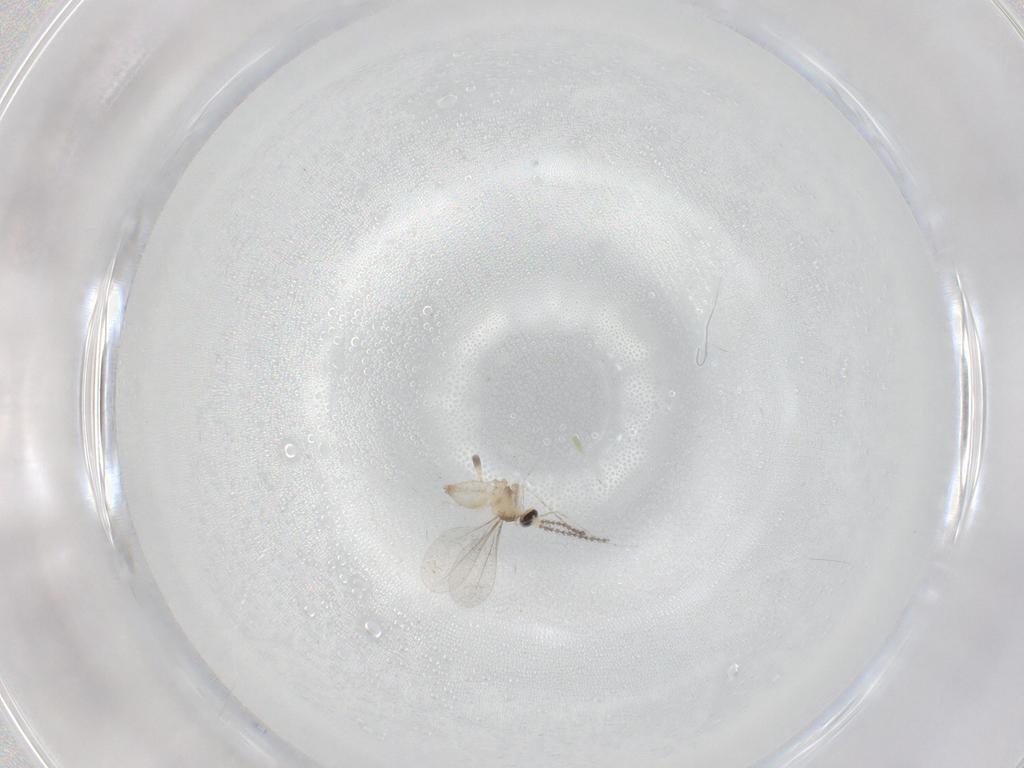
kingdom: Animalia
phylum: Arthropoda
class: Insecta
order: Diptera
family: Cecidomyiidae
